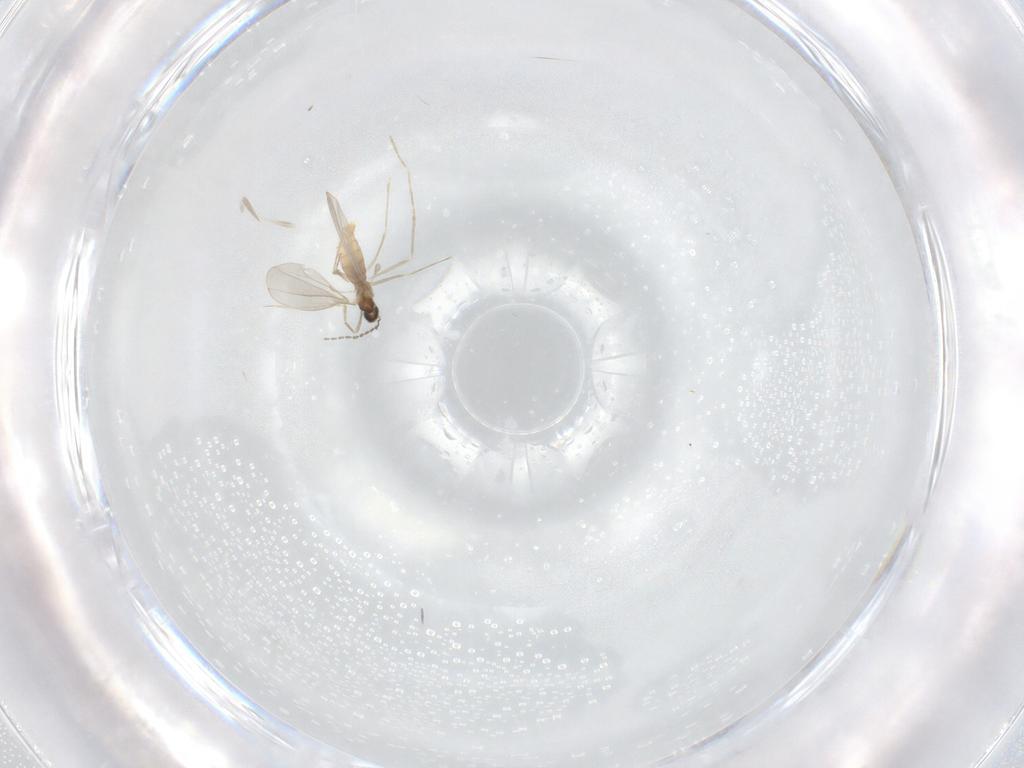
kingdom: Animalia
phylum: Arthropoda
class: Insecta
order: Diptera
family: Cecidomyiidae
